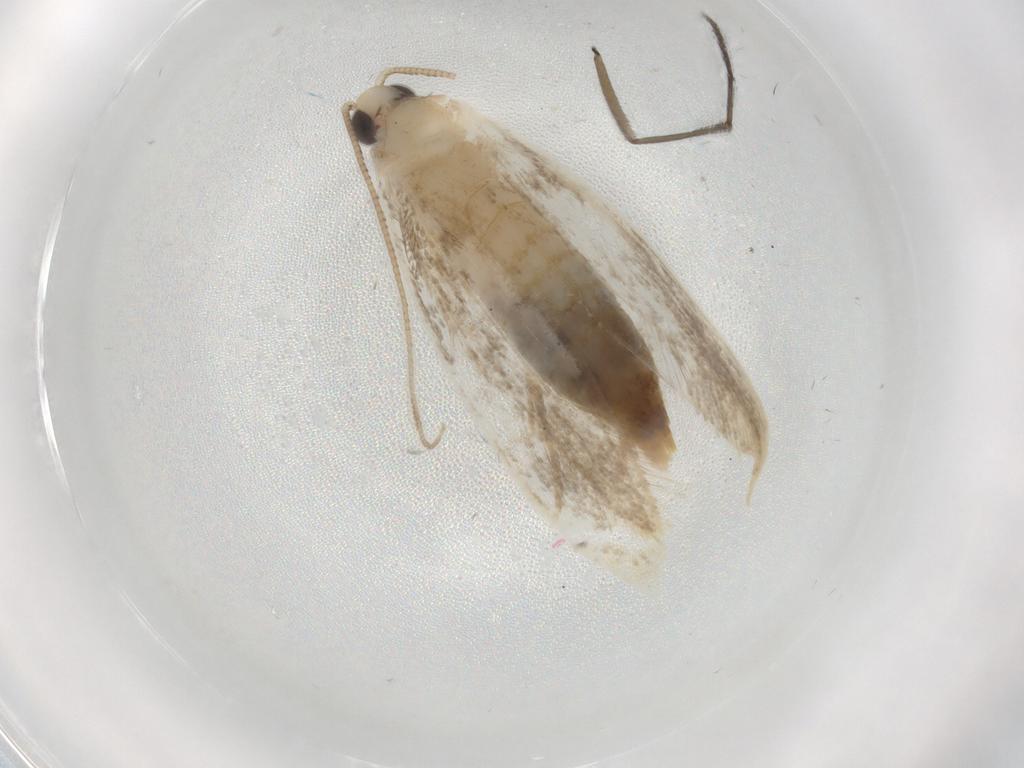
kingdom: Animalia
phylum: Arthropoda
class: Insecta
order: Lepidoptera
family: Tineidae
